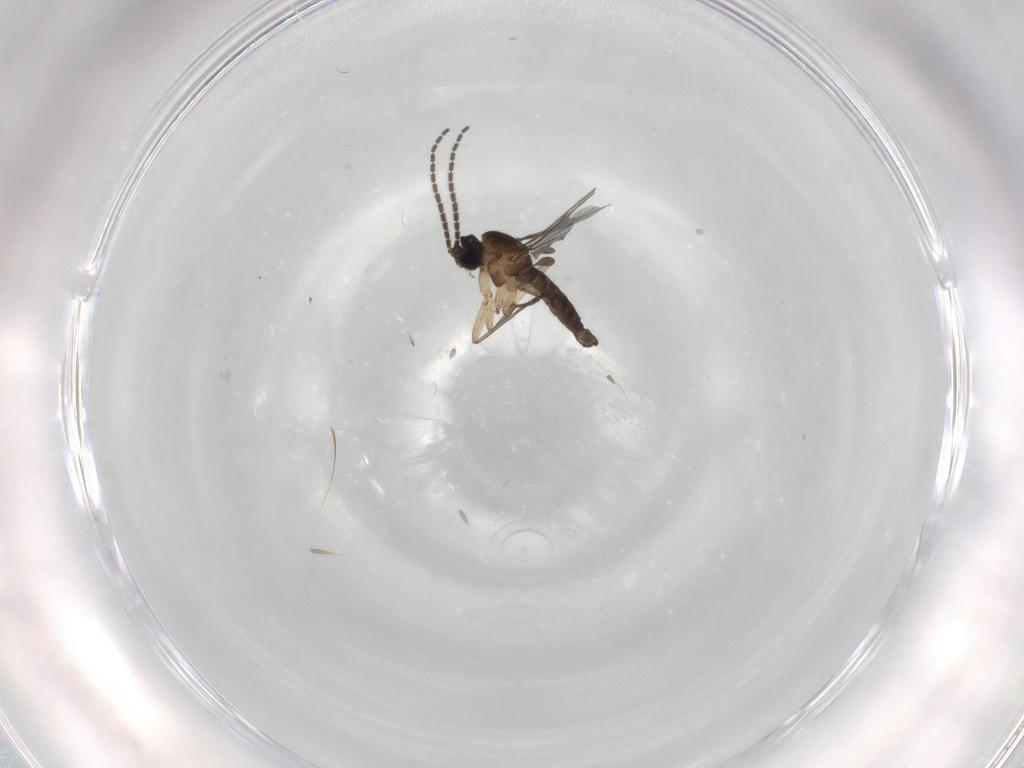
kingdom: Animalia
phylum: Arthropoda
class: Insecta
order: Diptera
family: Sciaridae
